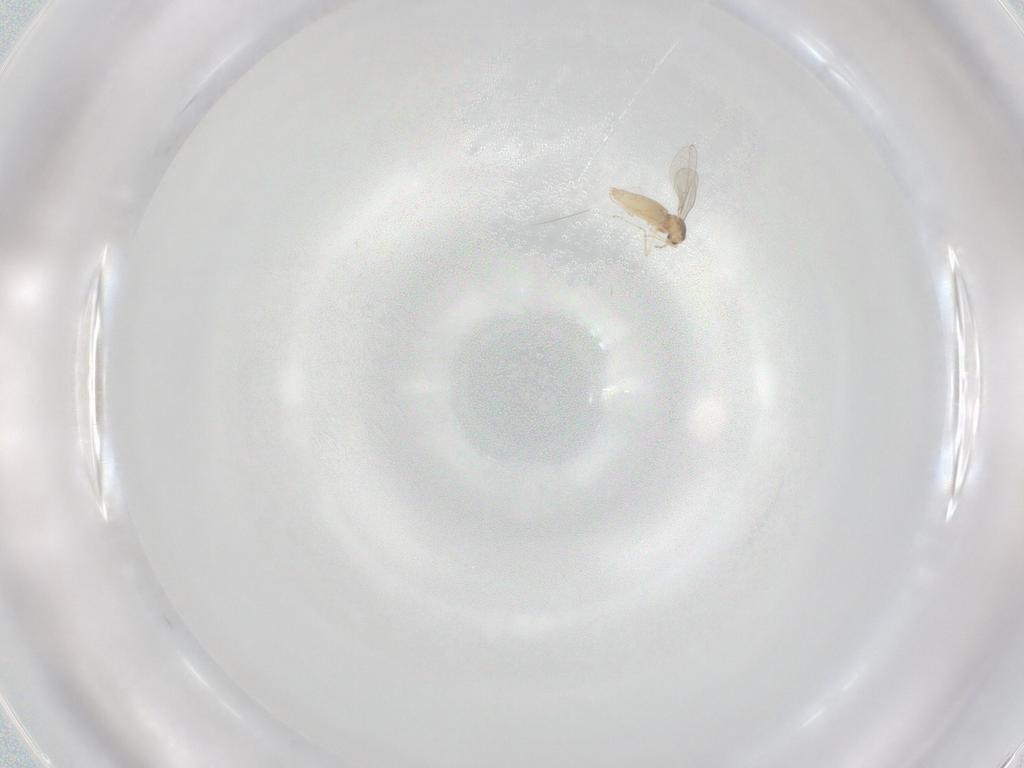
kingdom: Animalia
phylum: Arthropoda
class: Insecta
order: Diptera
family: Cecidomyiidae
